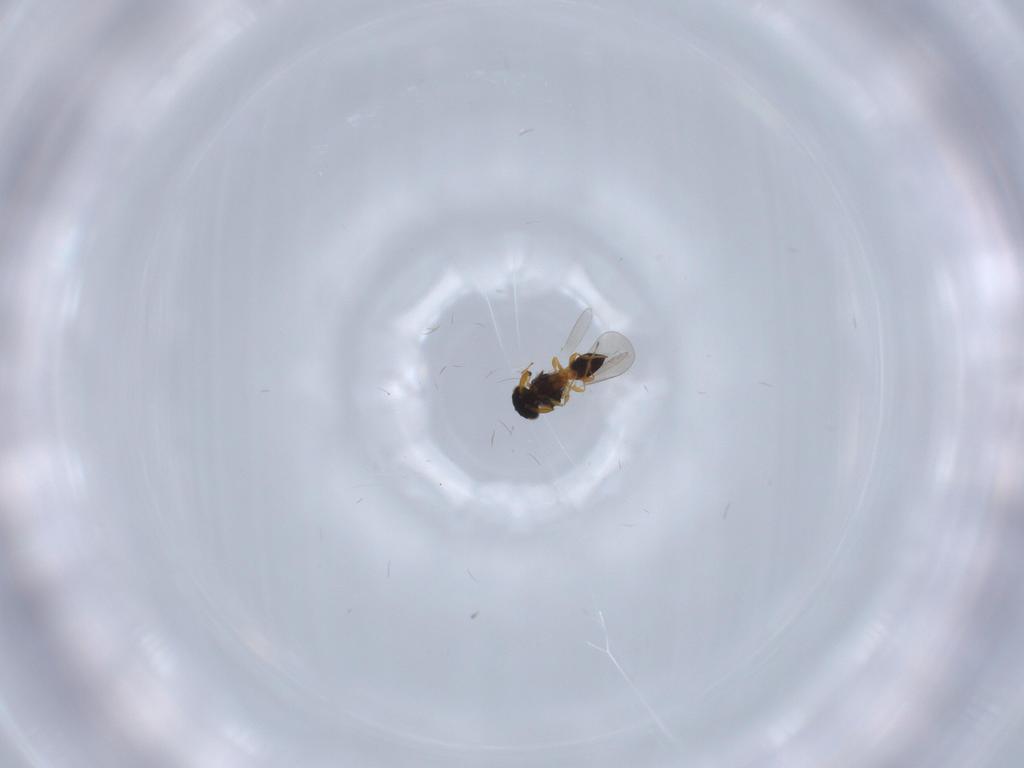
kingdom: Animalia
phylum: Arthropoda
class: Insecta
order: Hymenoptera
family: Platygastridae
